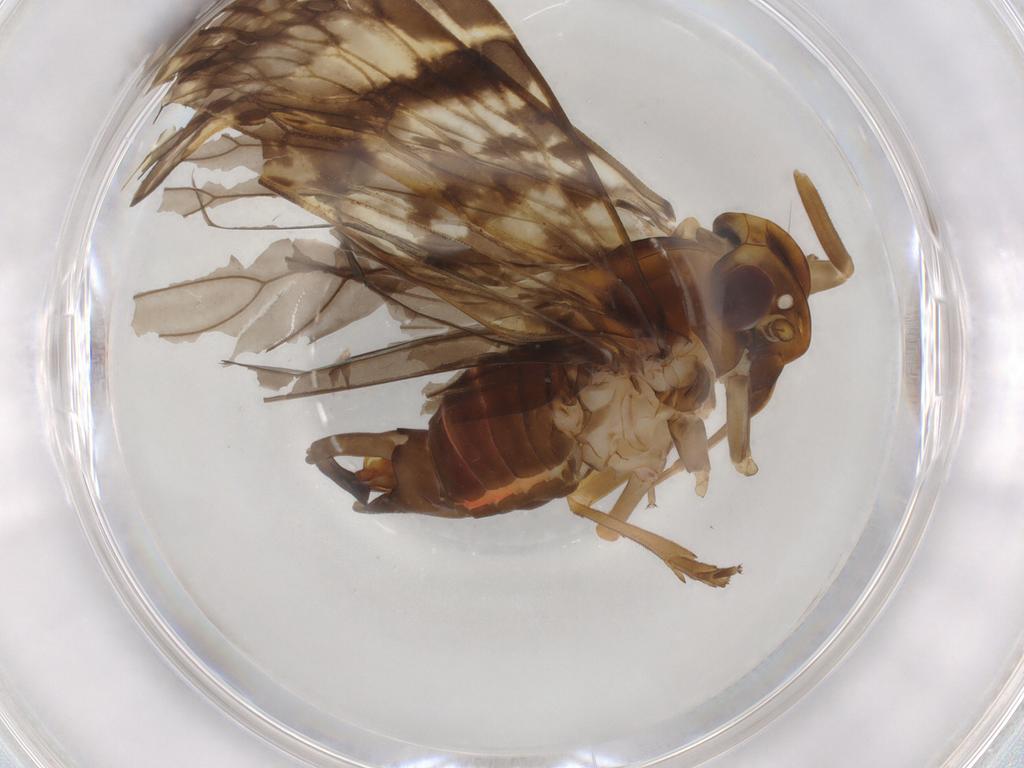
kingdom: Animalia
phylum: Arthropoda
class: Insecta
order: Hemiptera
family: Cixiidae
